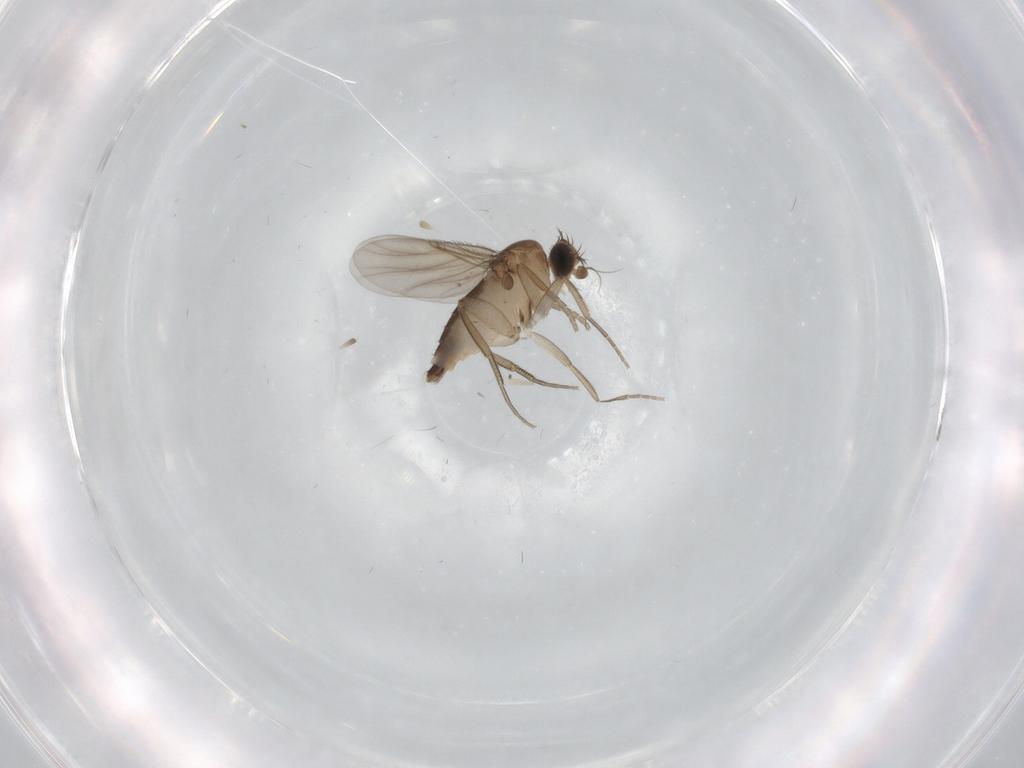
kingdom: Animalia
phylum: Arthropoda
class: Insecta
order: Diptera
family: Phoridae
